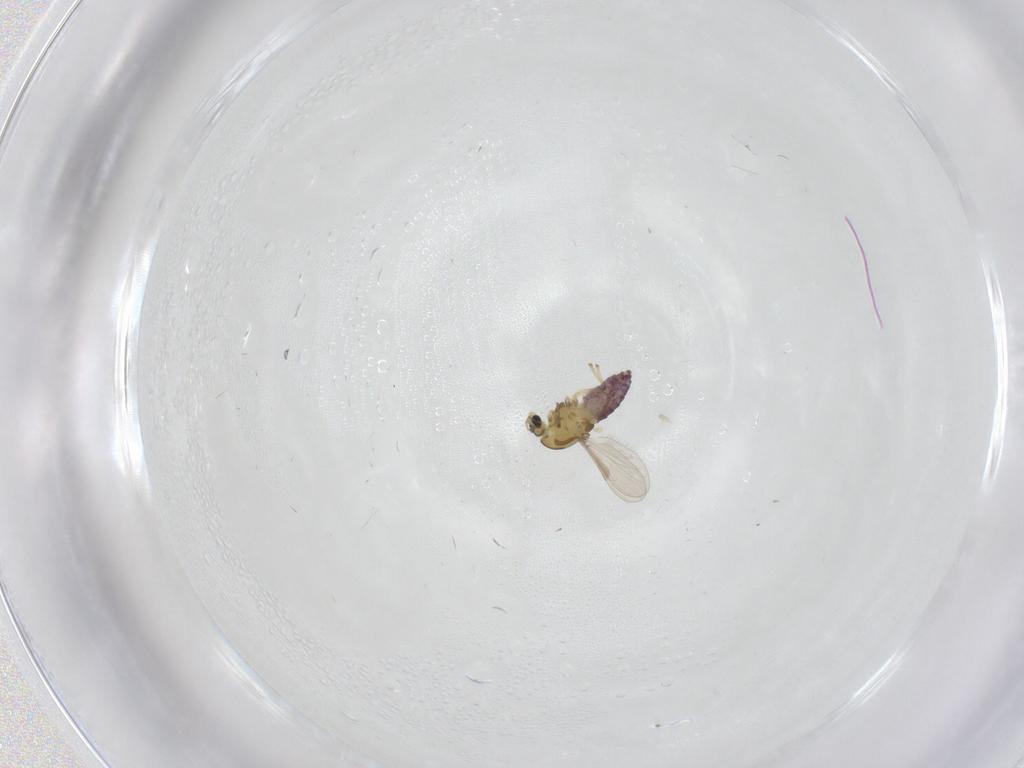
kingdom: Animalia
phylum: Arthropoda
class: Insecta
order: Diptera
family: Chironomidae
